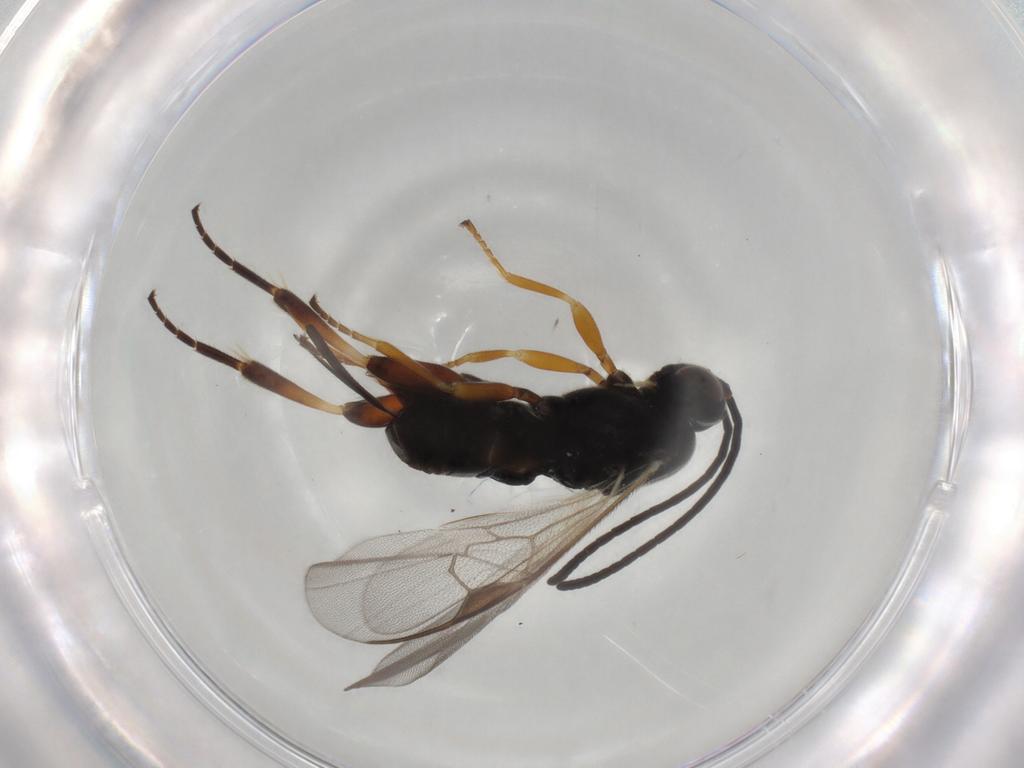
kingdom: Animalia
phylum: Arthropoda
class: Insecta
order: Hymenoptera
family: Braconidae
